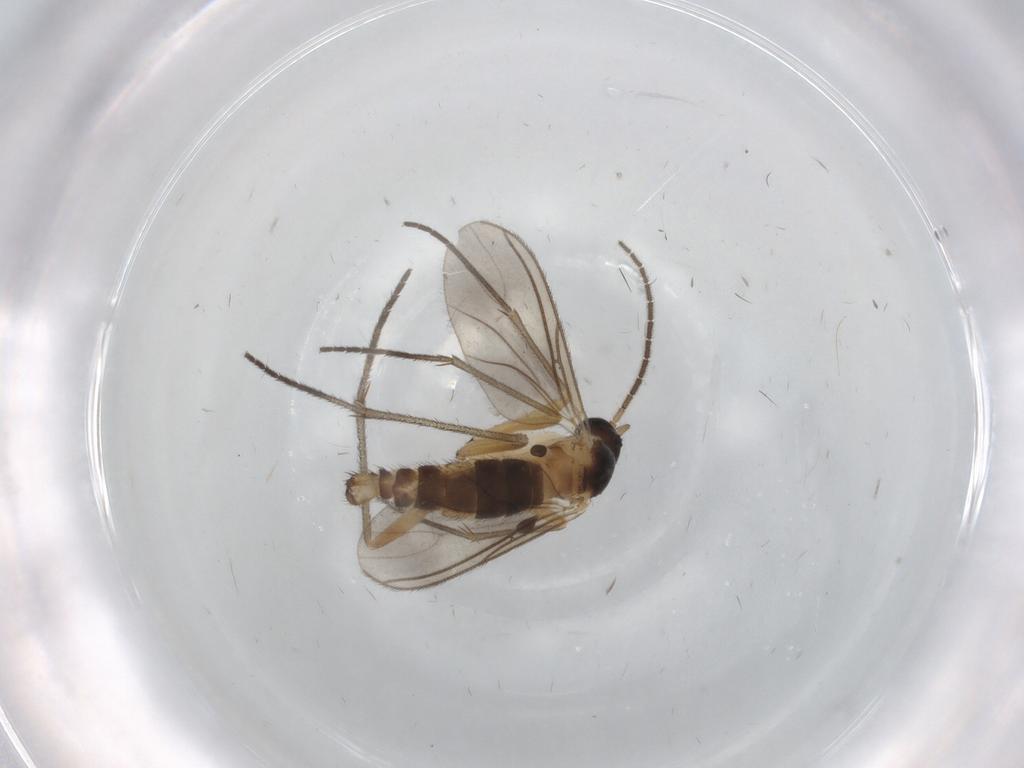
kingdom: Animalia
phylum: Arthropoda
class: Insecta
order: Diptera
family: Sciaridae
